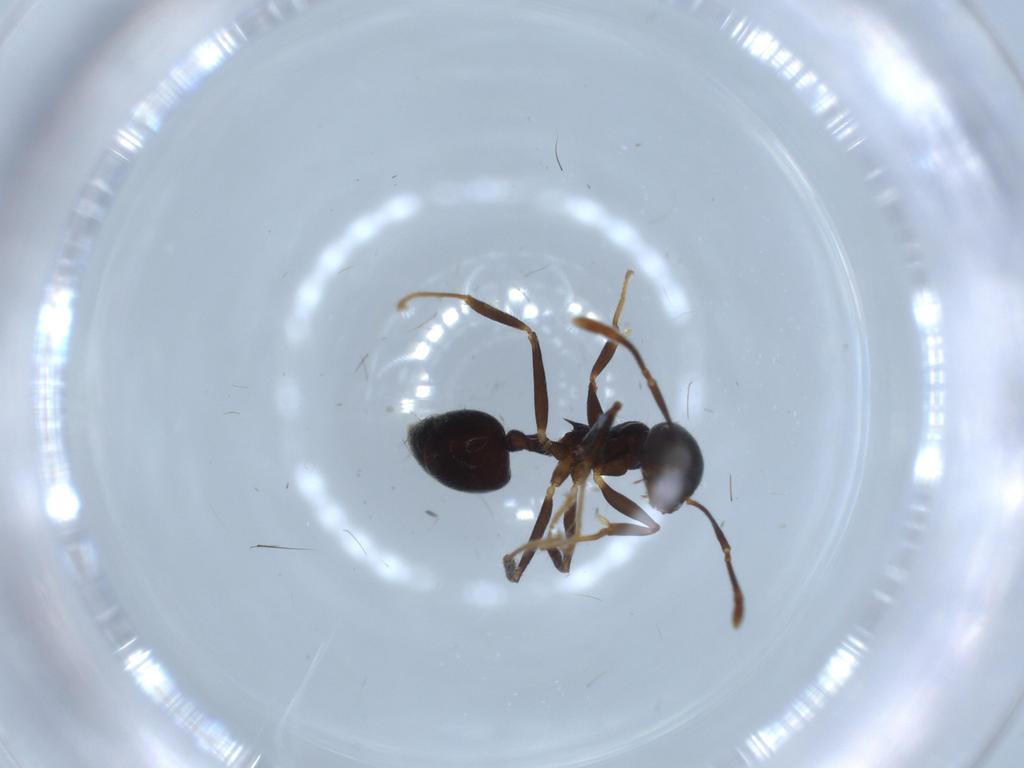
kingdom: Animalia
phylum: Arthropoda
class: Insecta
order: Hymenoptera
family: Formicidae
